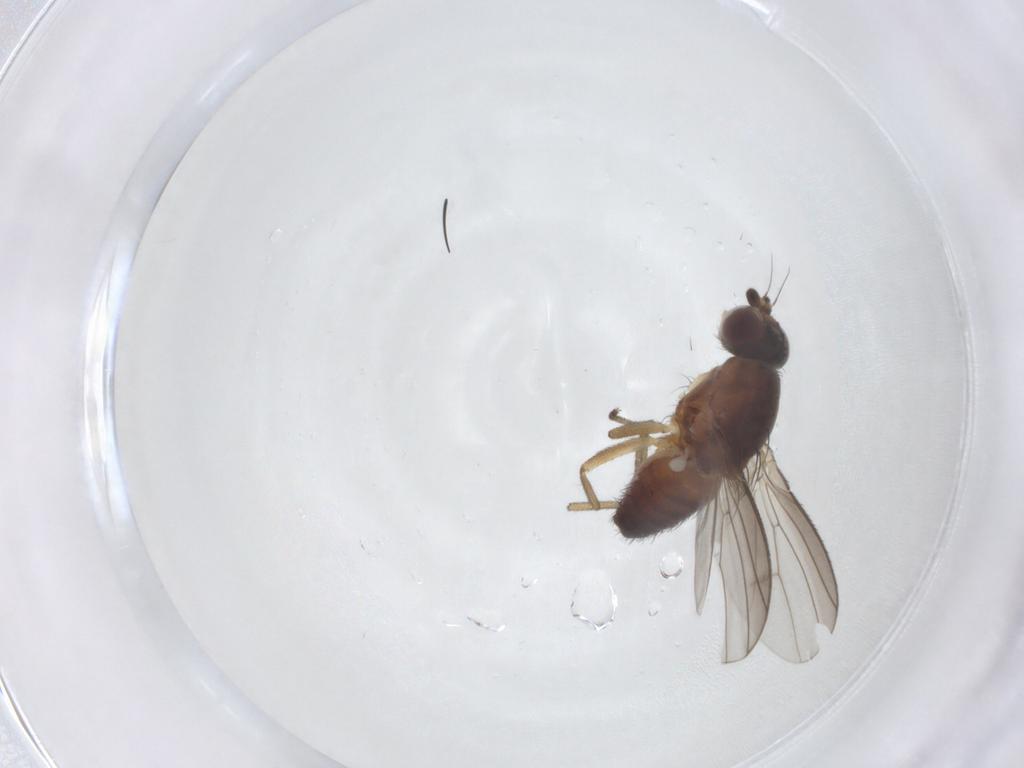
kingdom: Animalia
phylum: Arthropoda
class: Insecta
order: Diptera
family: Heleomyzidae
